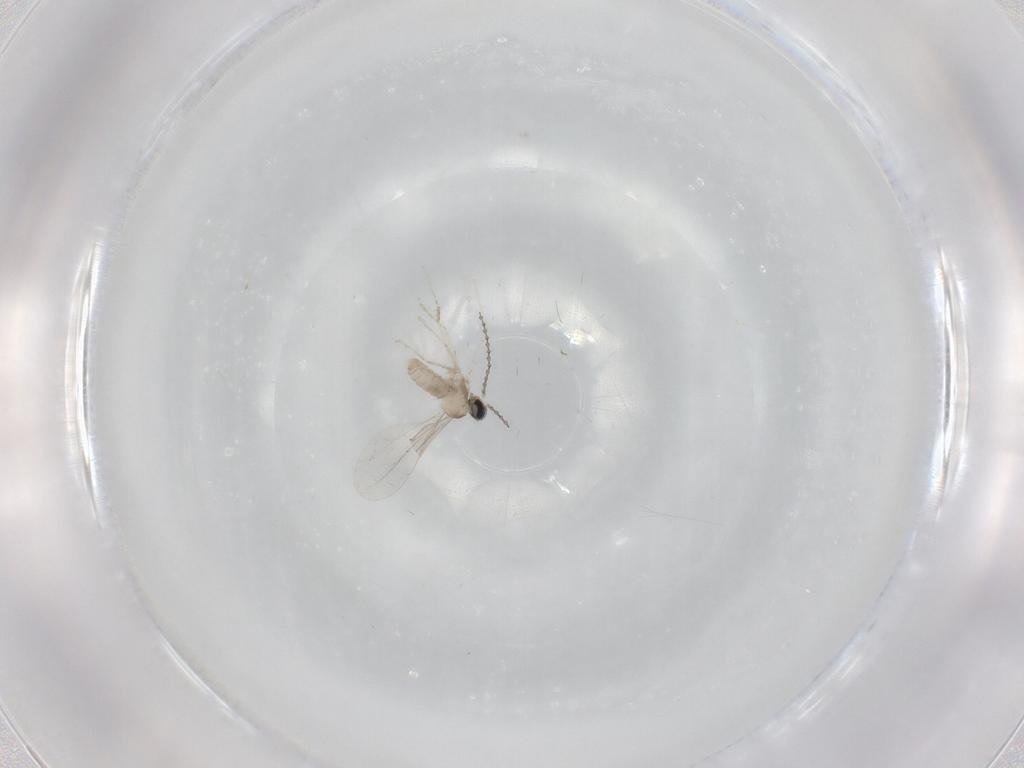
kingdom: Animalia
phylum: Arthropoda
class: Insecta
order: Diptera
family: Cecidomyiidae
